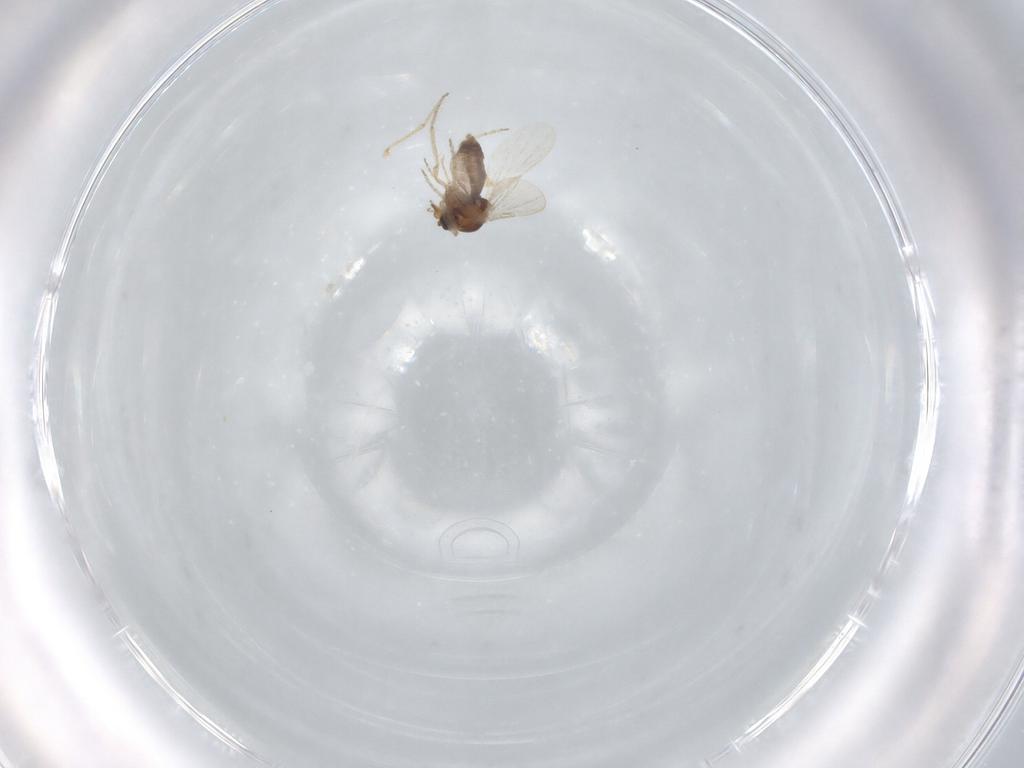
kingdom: Animalia
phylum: Arthropoda
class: Insecta
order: Diptera
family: Ceratopogonidae
